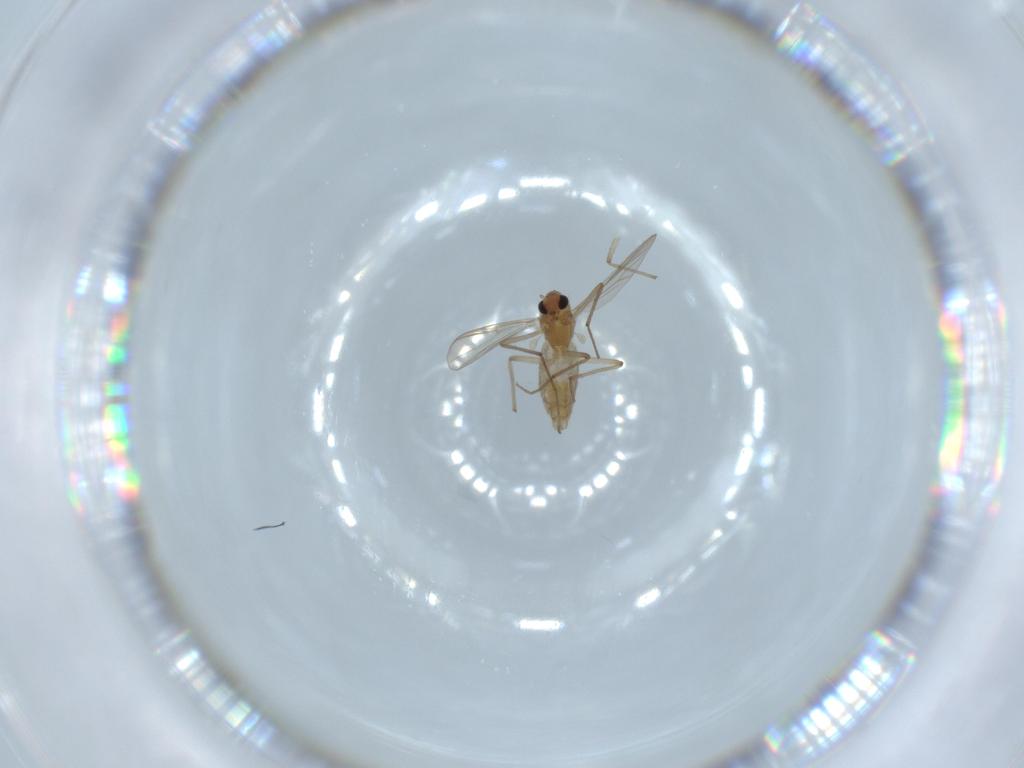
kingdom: Animalia
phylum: Arthropoda
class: Insecta
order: Diptera
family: Chironomidae
